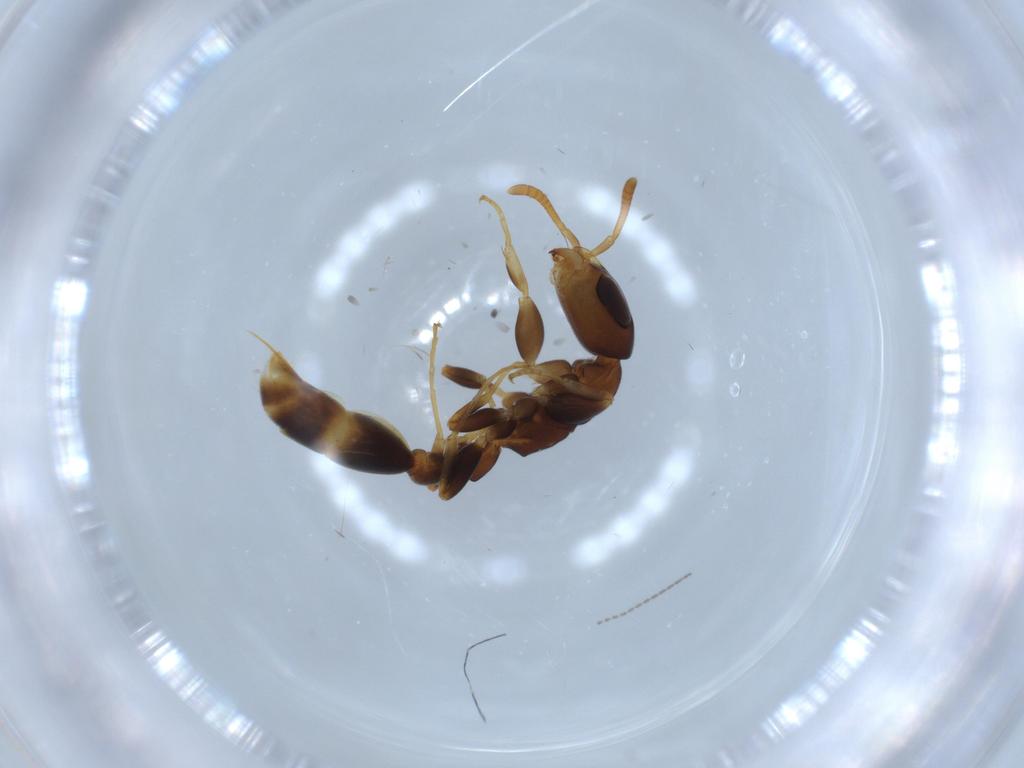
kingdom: Animalia
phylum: Arthropoda
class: Insecta
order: Hymenoptera
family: Formicidae
